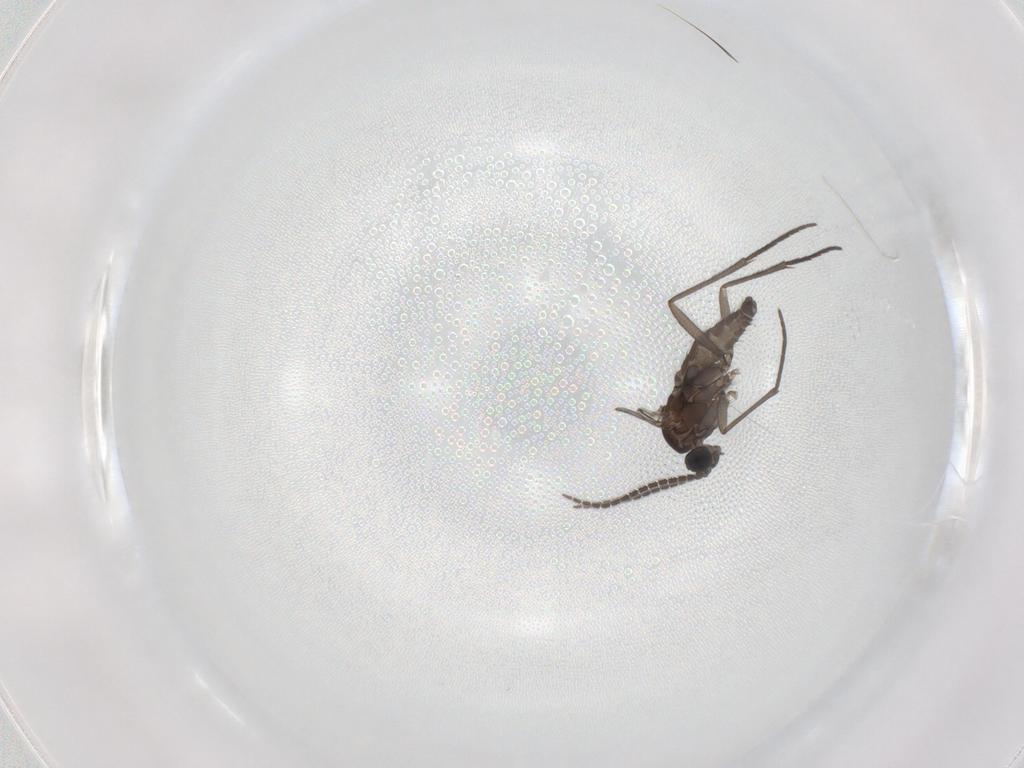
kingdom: Animalia
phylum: Arthropoda
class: Insecta
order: Diptera
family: Sciaridae
